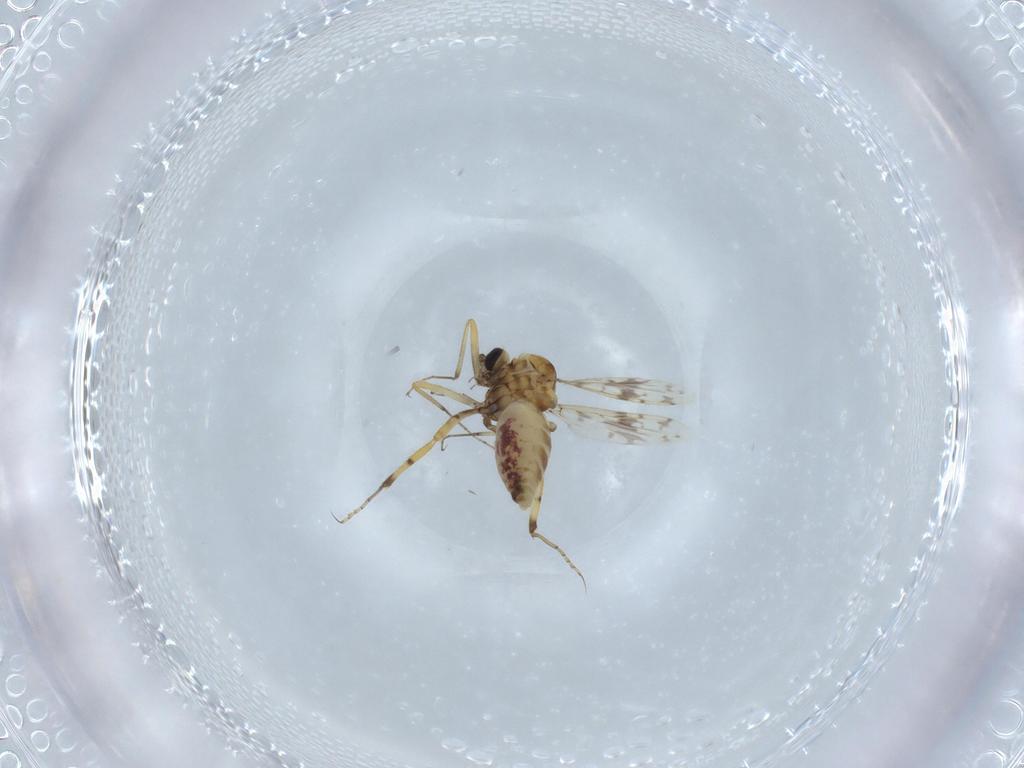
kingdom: Animalia
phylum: Arthropoda
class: Insecta
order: Diptera
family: Ceratopogonidae
